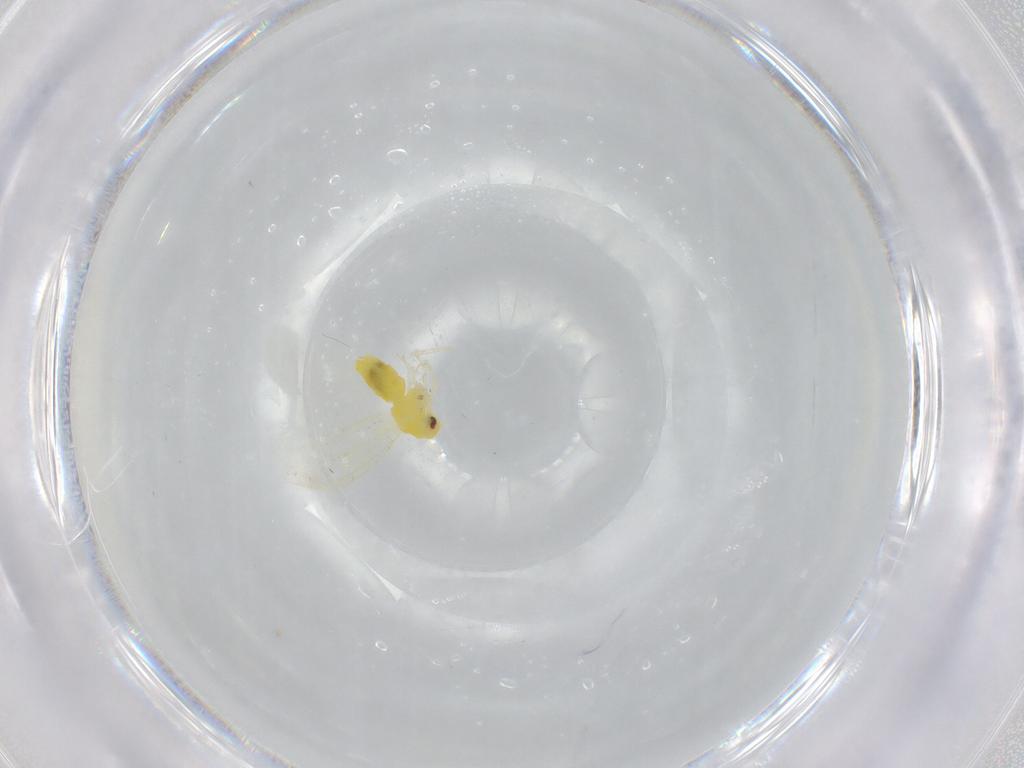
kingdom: Animalia
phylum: Arthropoda
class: Insecta
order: Hemiptera
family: Aleyrodidae
